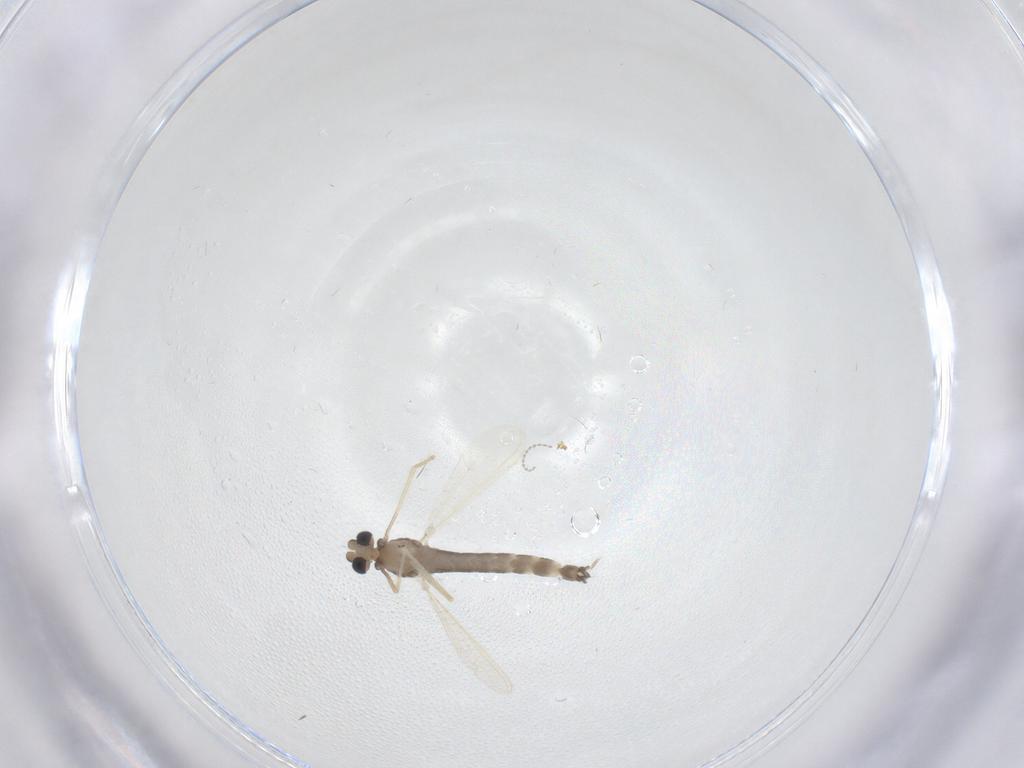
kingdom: Animalia
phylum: Arthropoda
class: Insecta
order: Diptera
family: Chironomidae
